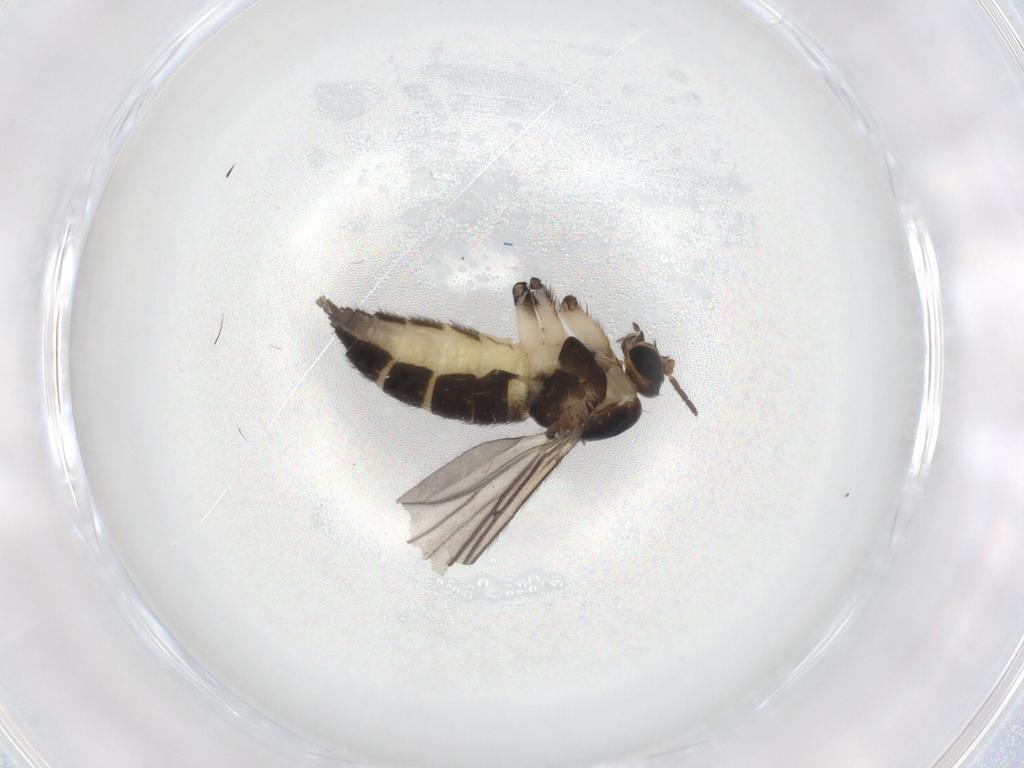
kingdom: Animalia
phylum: Arthropoda
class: Insecta
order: Diptera
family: Sciaridae
